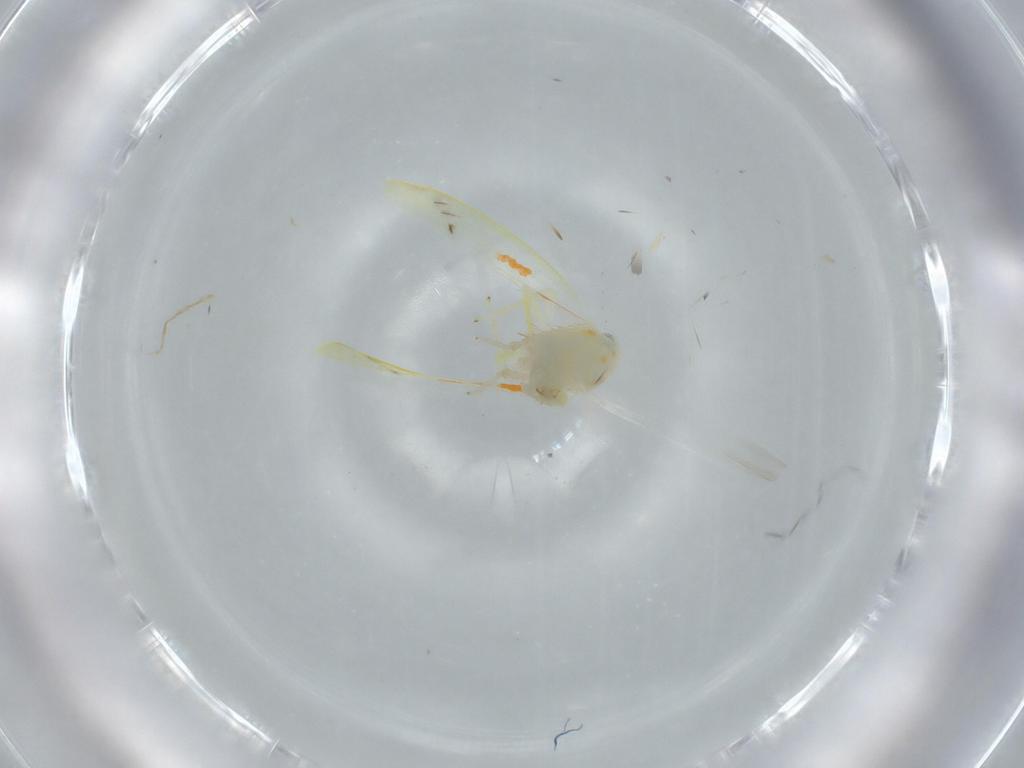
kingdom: Animalia
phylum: Arthropoda
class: Insecta
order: Hemiptera
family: Cicadellidae
